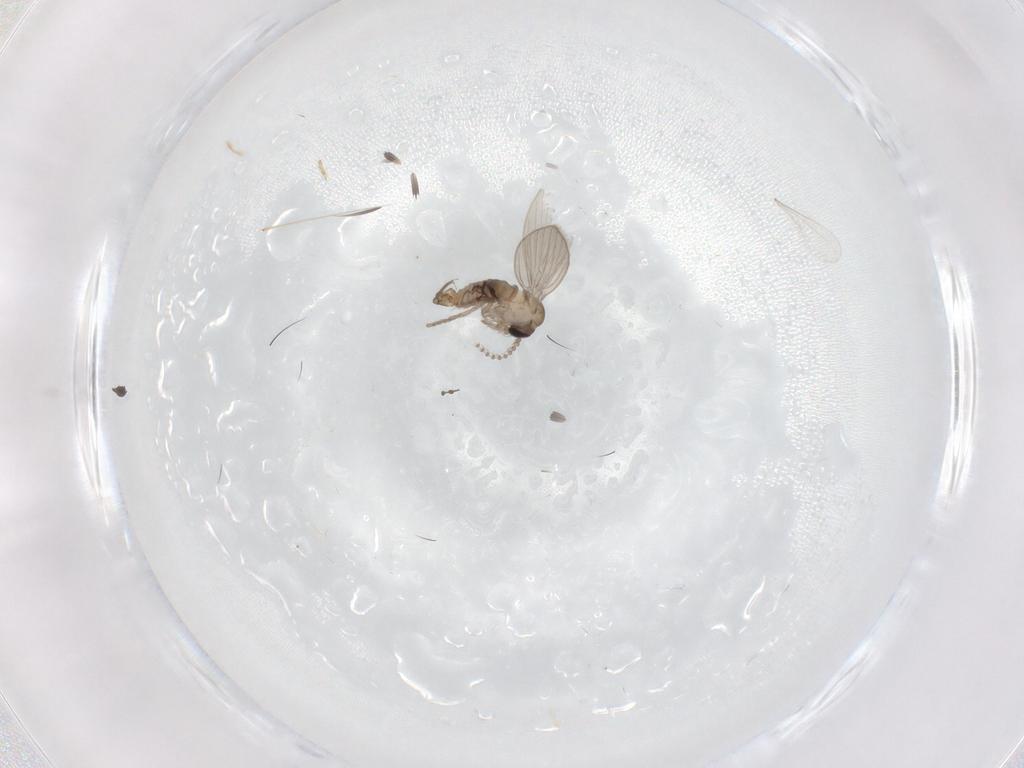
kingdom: Animalia
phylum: Arthropoda
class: Insecta
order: Diptera
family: Psychodidae
